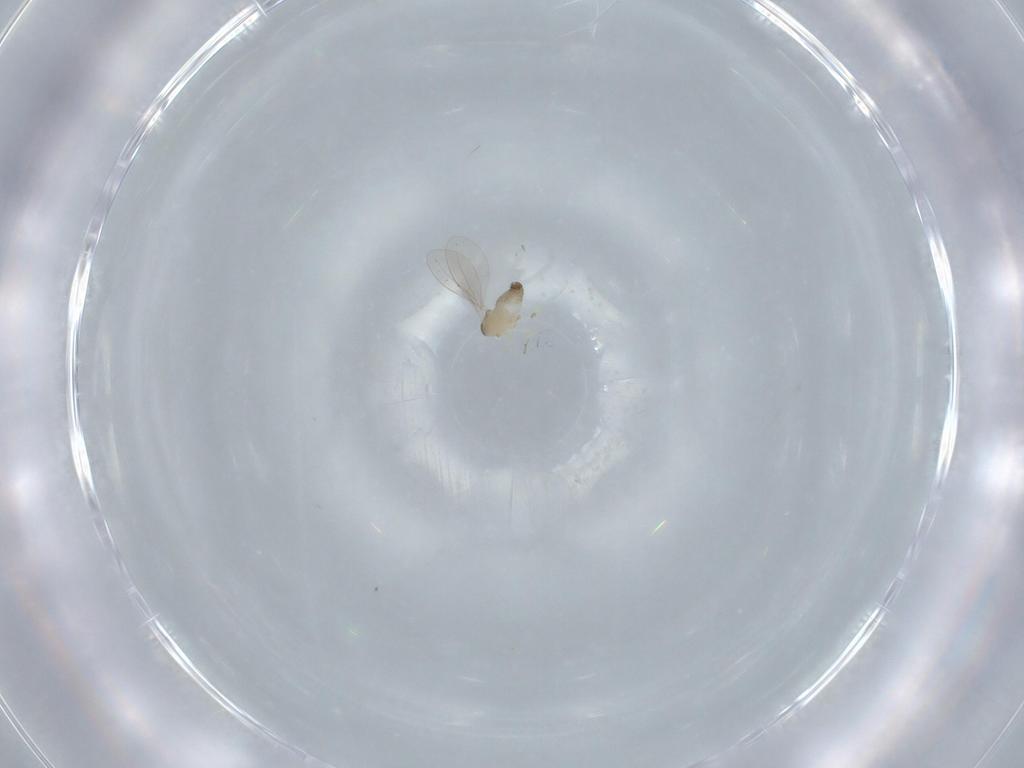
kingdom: Animalia
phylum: Arthropoda
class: Insecta
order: Diptera
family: Cecidomyiidae
